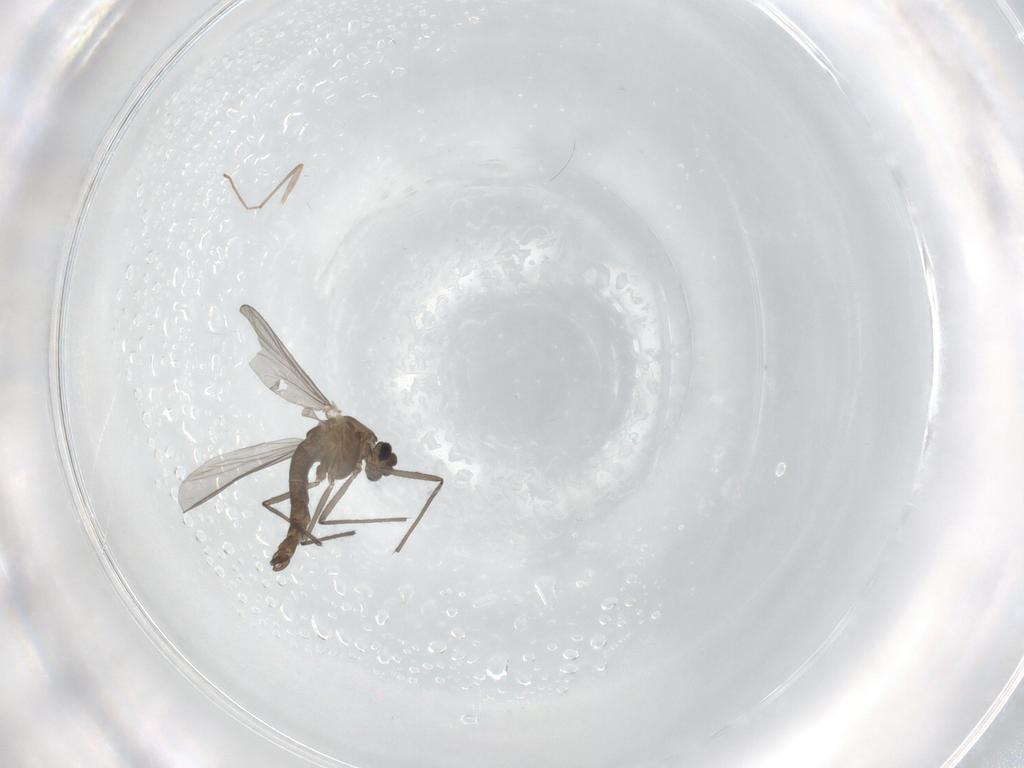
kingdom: Animalia
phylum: Arthropoda
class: Insecta
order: Diptera
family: Chironomidae
